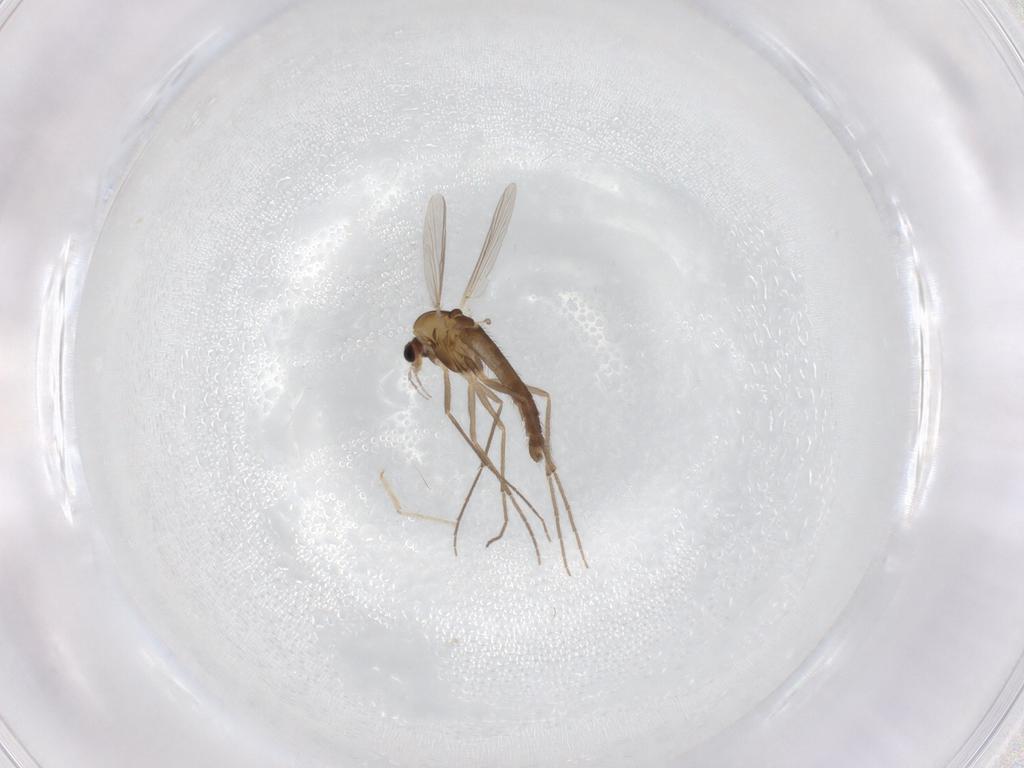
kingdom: Animalia
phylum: Arthropoda
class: Insecta
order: Diptera
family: Chironomidae
